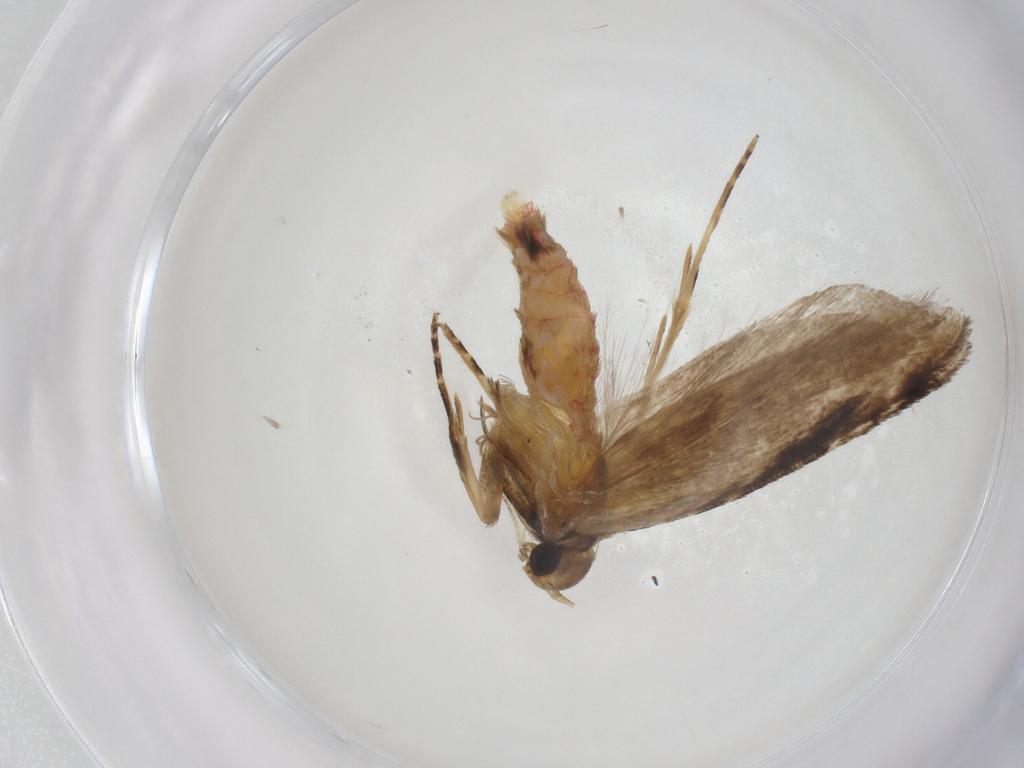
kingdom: Animalia
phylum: Arthropoda
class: Insecta
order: Lepidoptera
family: Gelechiidae
